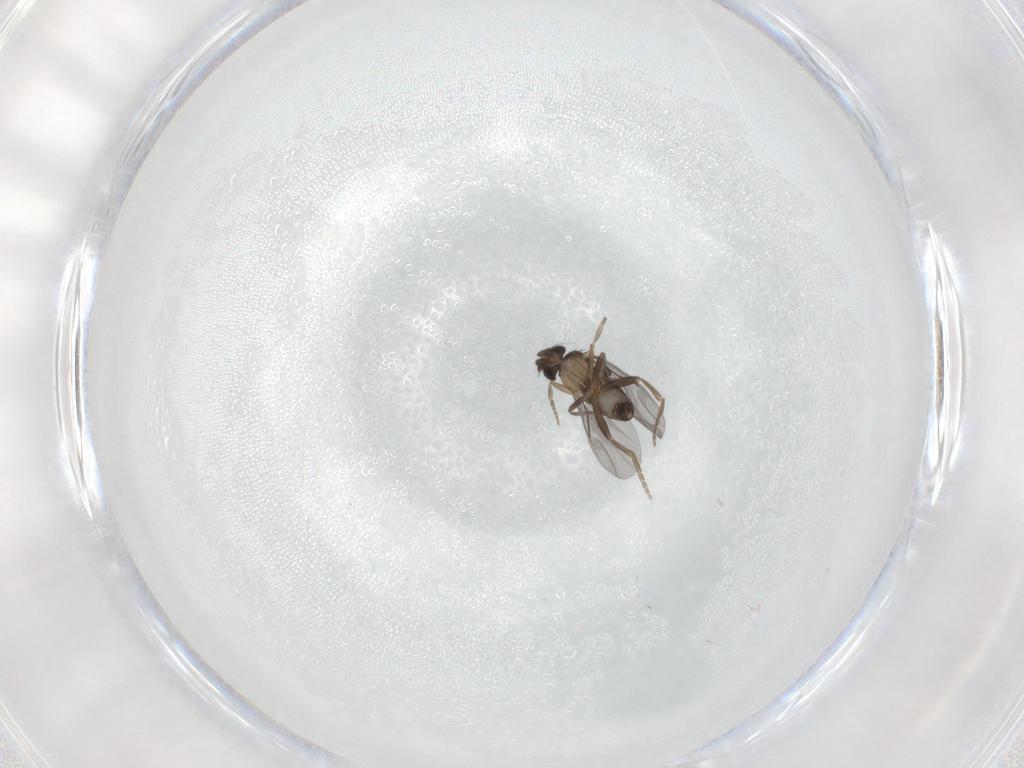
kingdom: Animalia
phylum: Arthropoda
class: Insecta
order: Diptera
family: Phoridae
